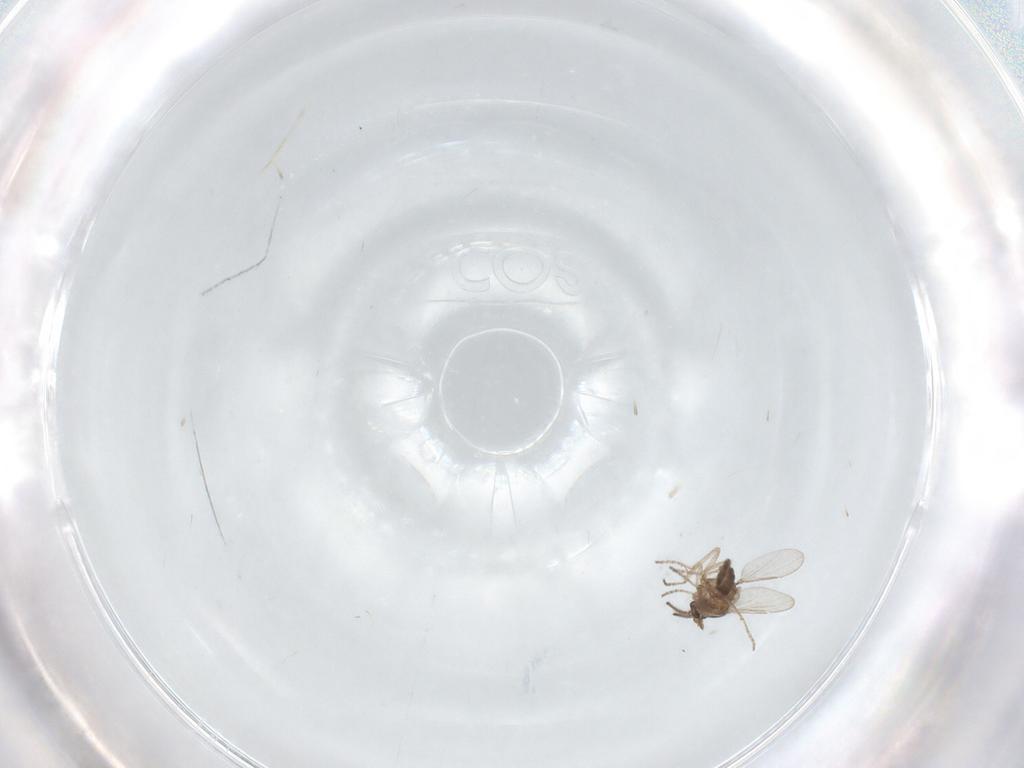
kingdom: Animalia
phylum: Arthropoda
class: Insecta
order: Diptera
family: Ceratopogonidae
